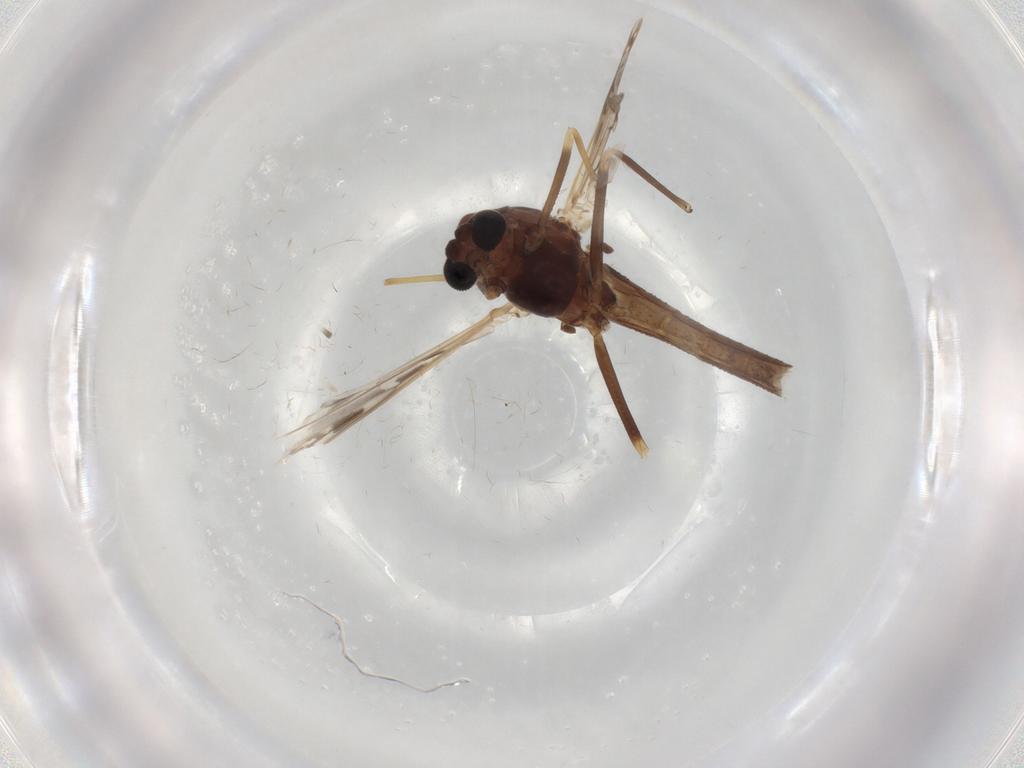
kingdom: Animalia
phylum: Arthropoda
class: Insecta
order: Diptera
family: Chironomidae
